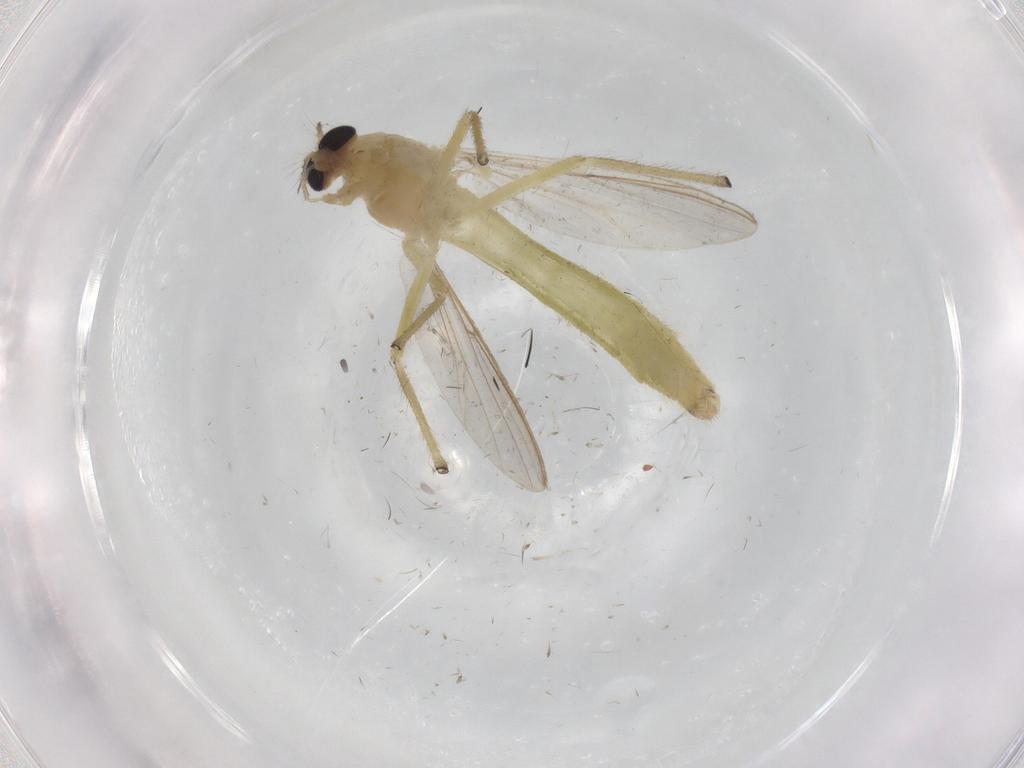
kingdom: Animalia
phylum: Arthropoda
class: Insecta
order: Diptera
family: Chironomidae
